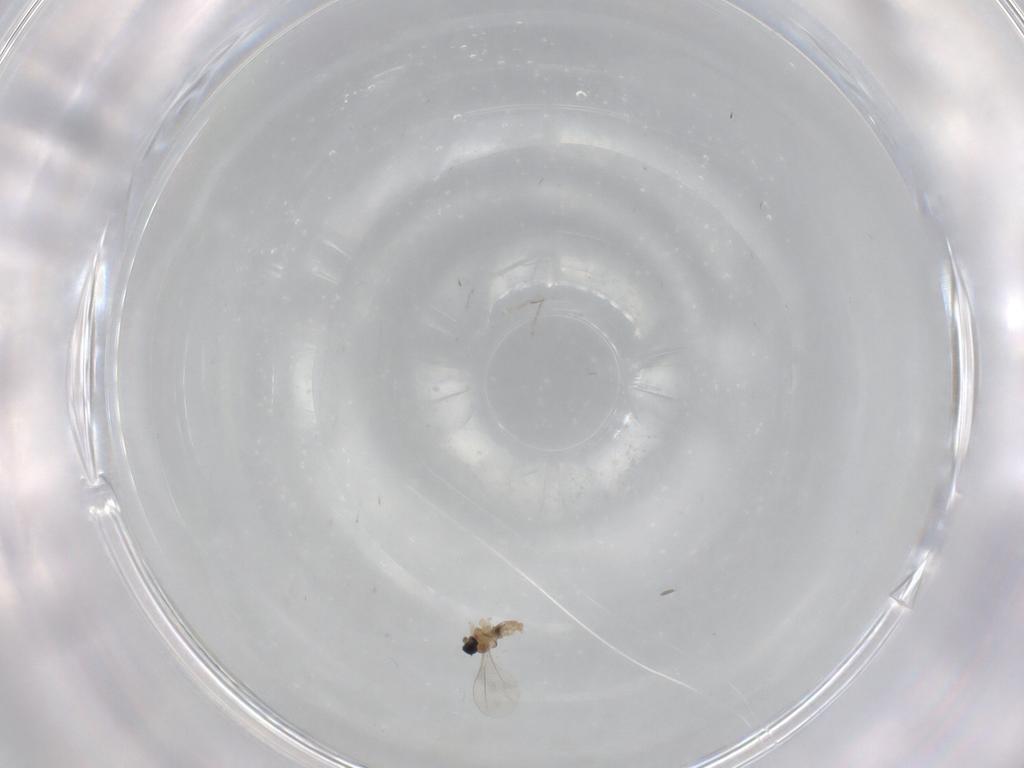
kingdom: Animalia
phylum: Arthropoda
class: Insecta
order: Diptera
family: Cecidomyiidae
